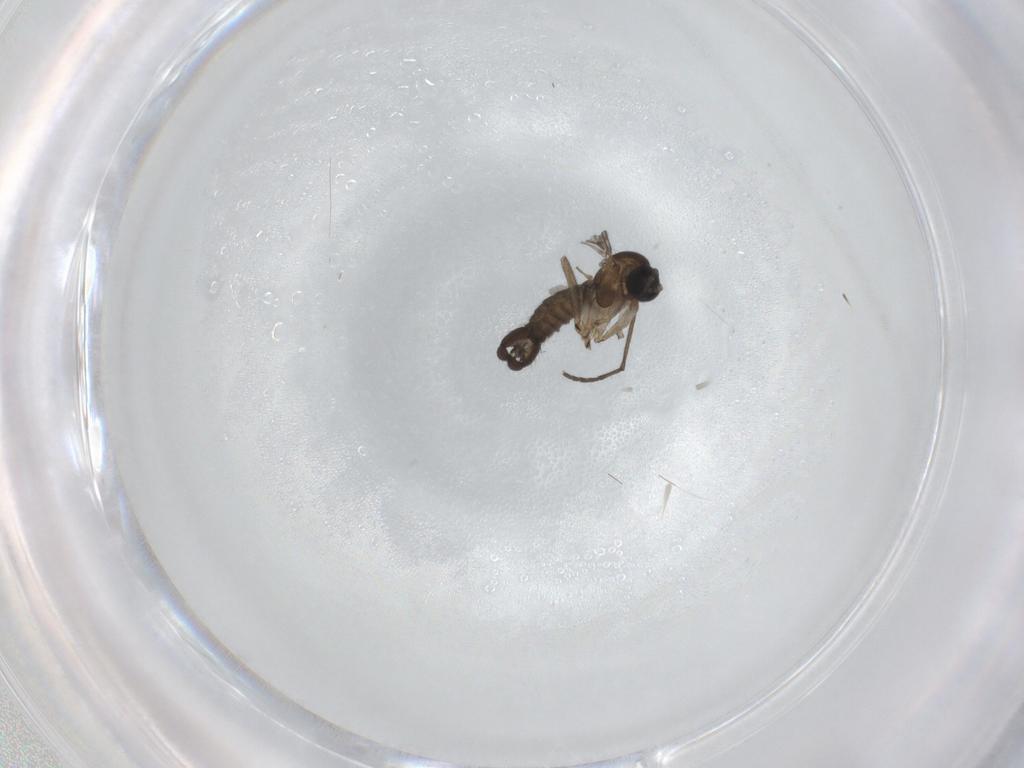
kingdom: Animalia
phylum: Arthropoda
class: Insecta
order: Diptera
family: Sciaridae
